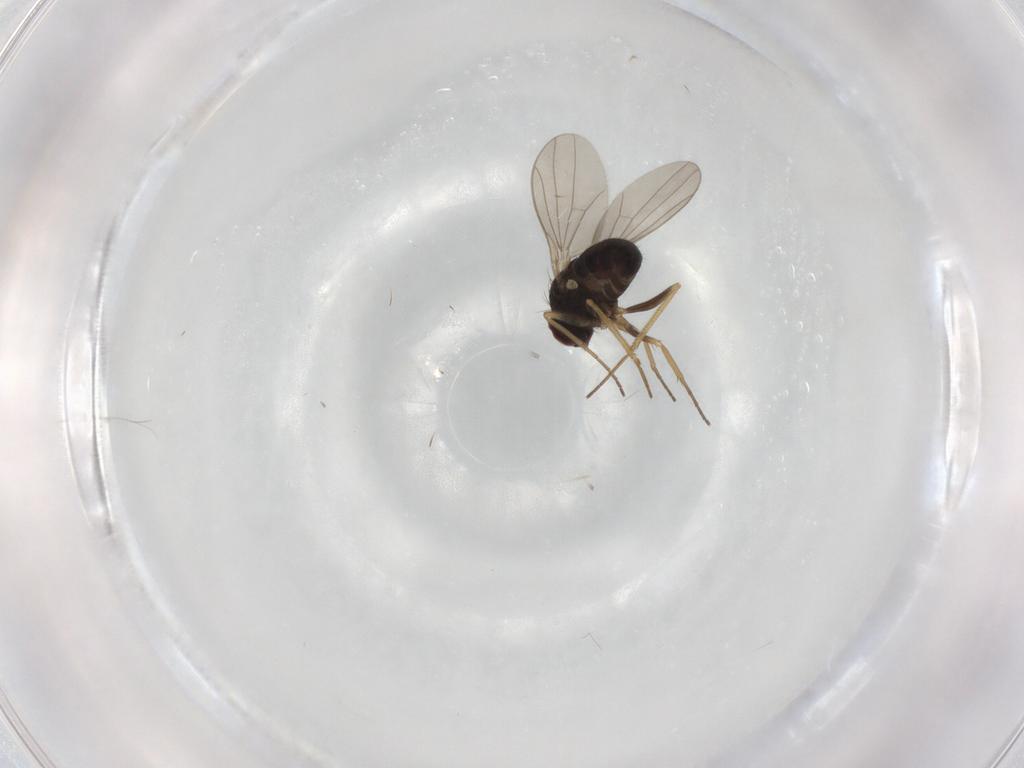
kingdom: Animalia
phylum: Arthropoda
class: Insecta
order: Diptera
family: Dolichopodidae
